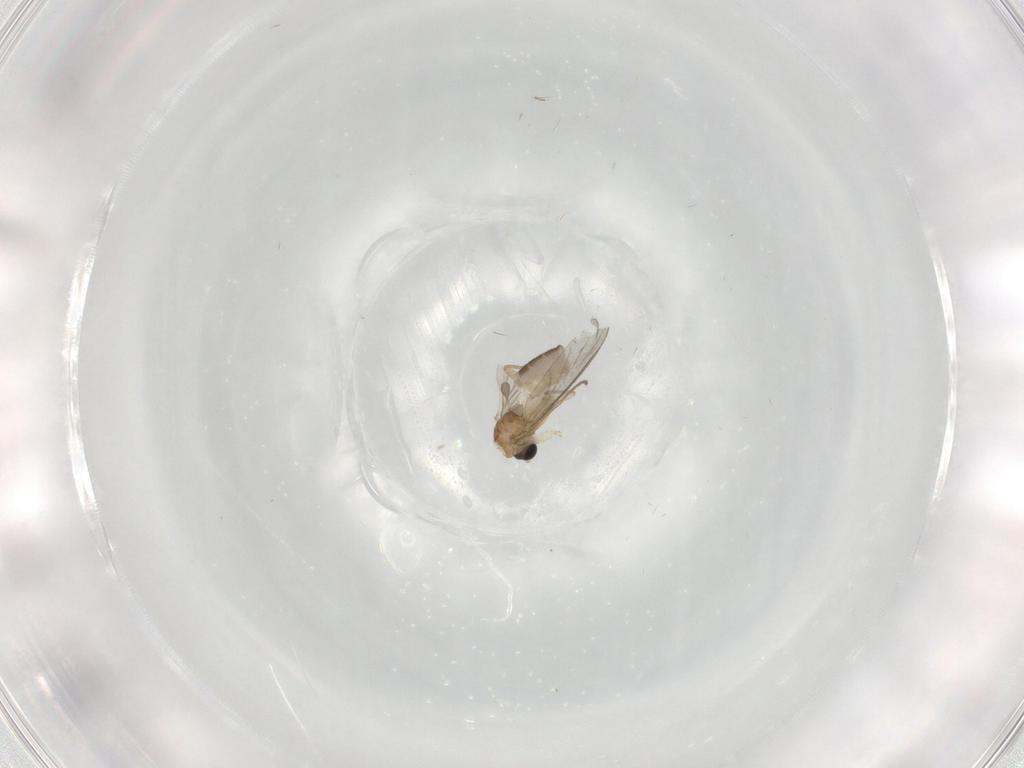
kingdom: Animalia
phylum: Arthropoda
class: Insecta
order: Diptera
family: Sciaridae
